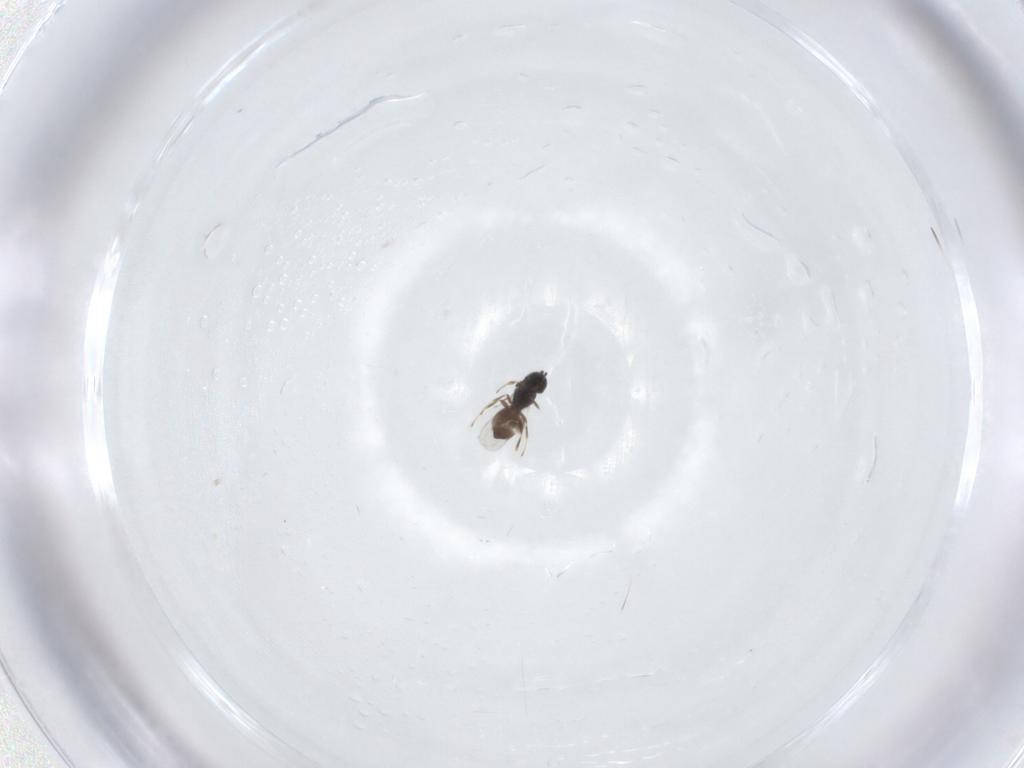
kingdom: Animalia
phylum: Arthropoda
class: Insecta
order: Hymenoptera
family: Scelionidae
